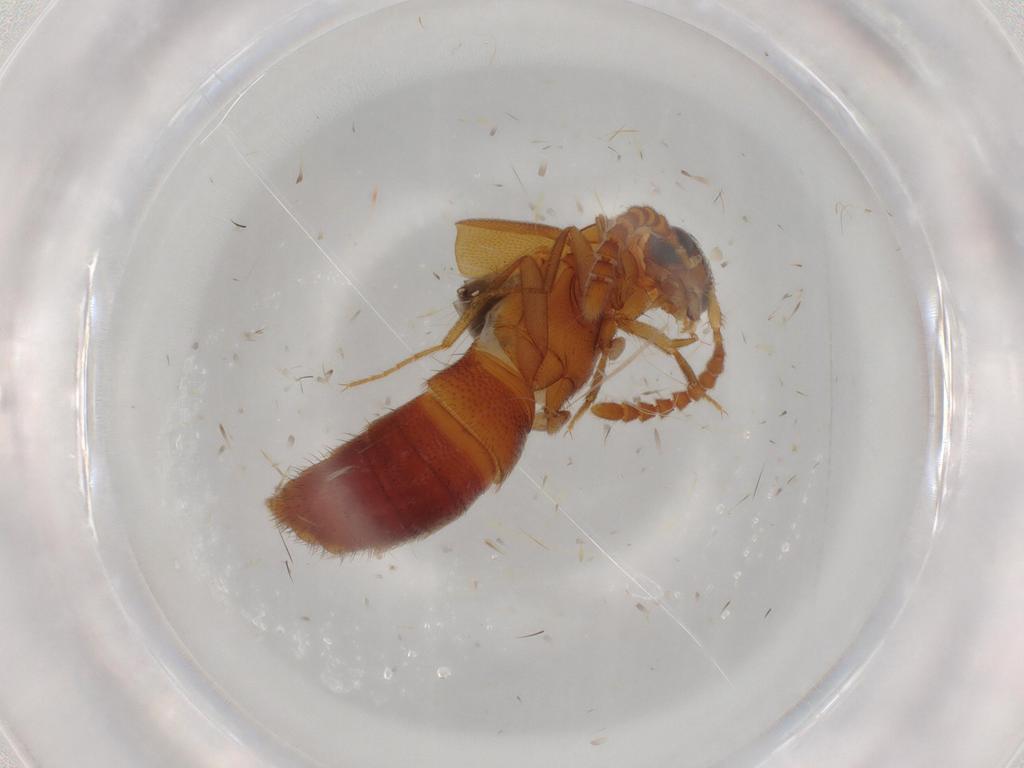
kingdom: Animalia
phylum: Arthropoda
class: Insecta
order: Coleoptera
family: Staphylinidae
